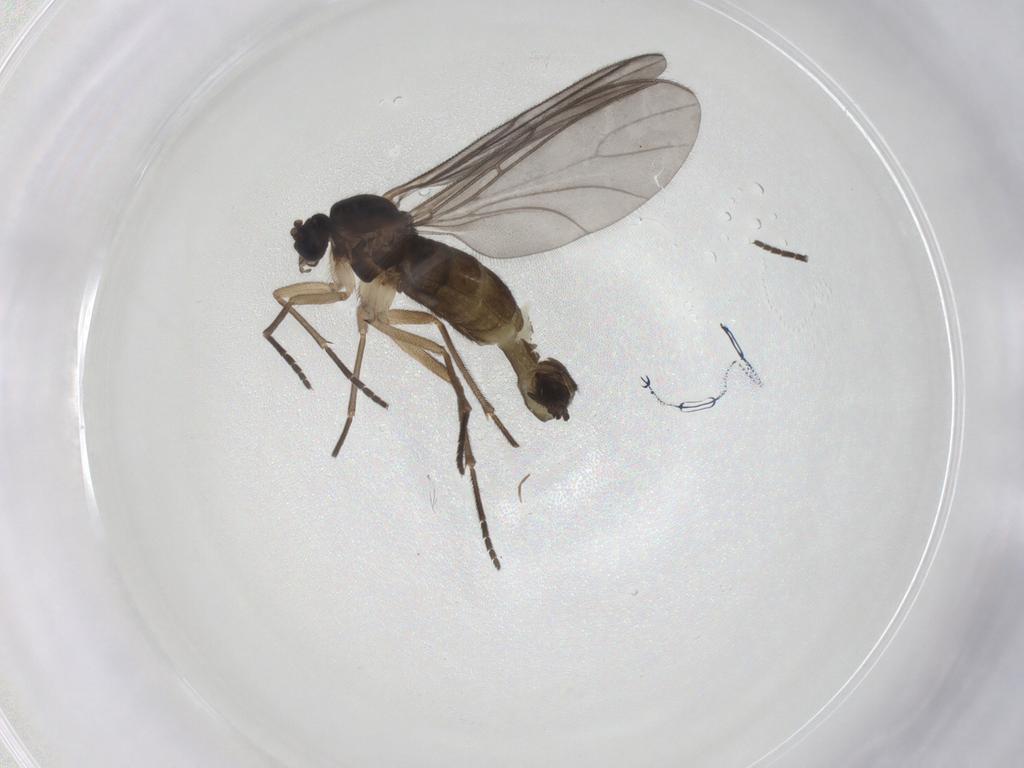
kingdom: Animalia
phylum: Arthropoda
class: Insecta
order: Diptera
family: Sciaridae
